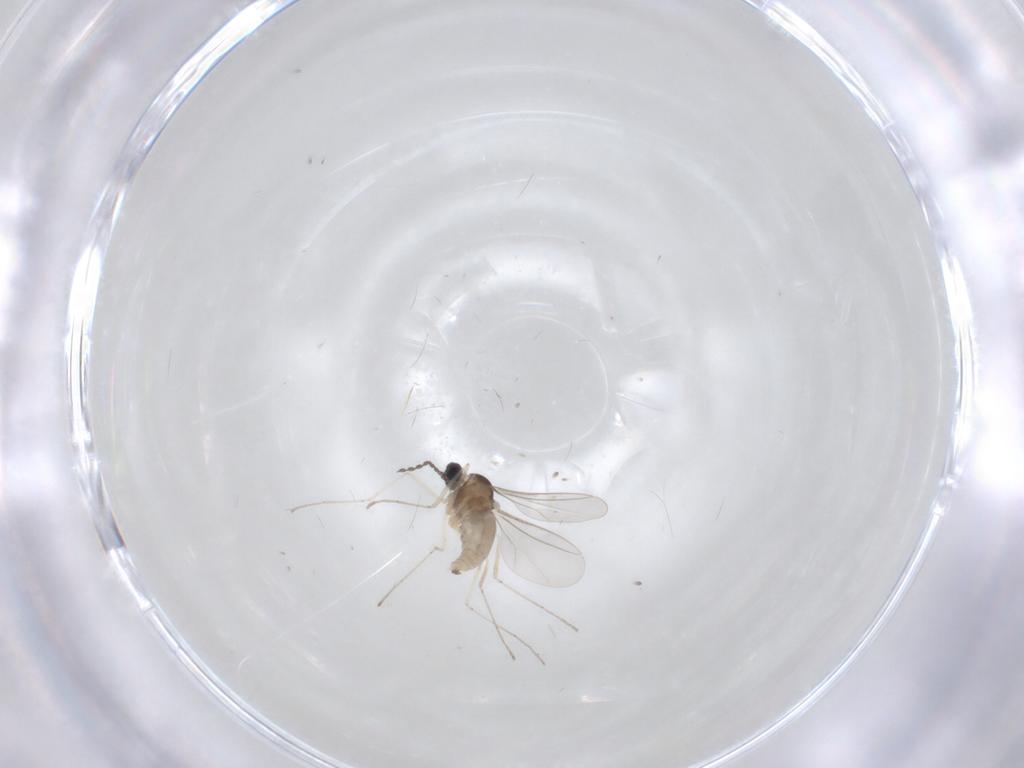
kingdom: Animalia
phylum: Arthropoda
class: Insecta
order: Diptera
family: Cecidomyiidae
